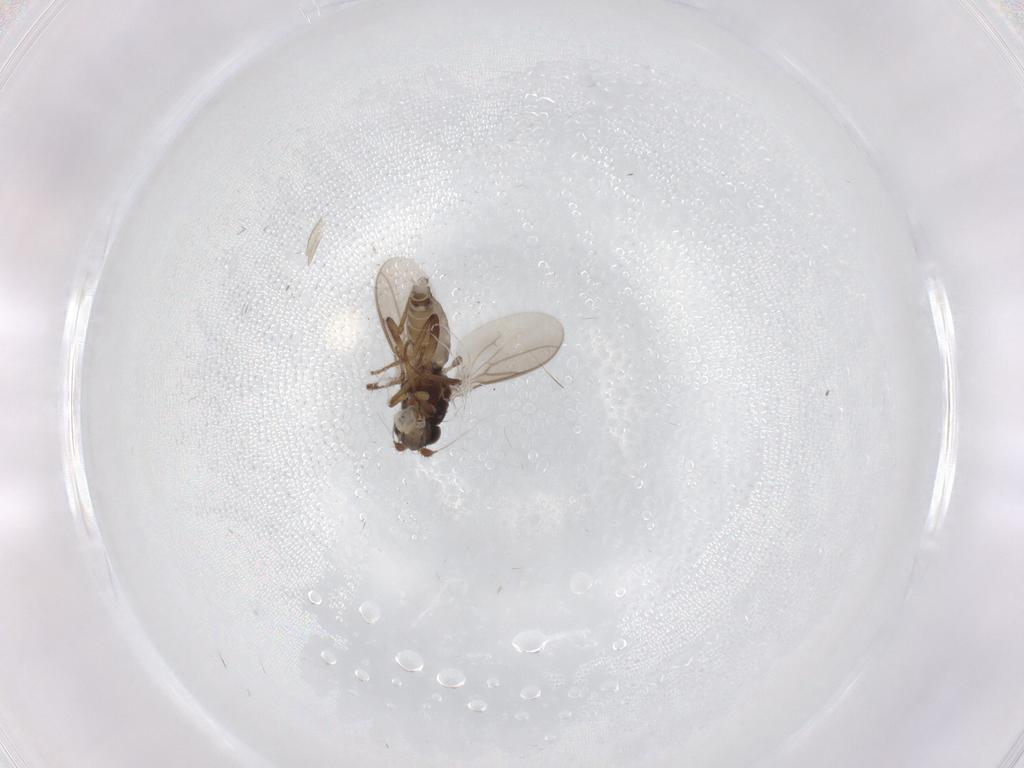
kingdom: Animalia
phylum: Arthropoda
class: Insecta
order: Diptera
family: Sphaeroceridae
